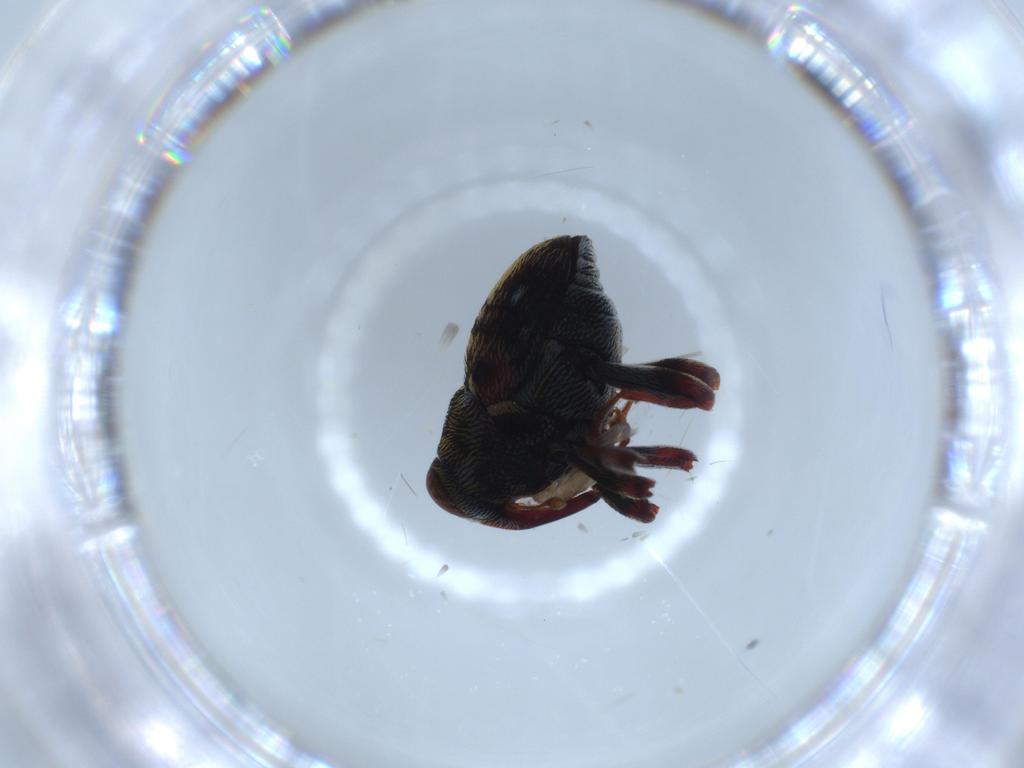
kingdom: Animalia
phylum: Arthropoda
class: Insecta
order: Coleoptera
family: Curculionidae
